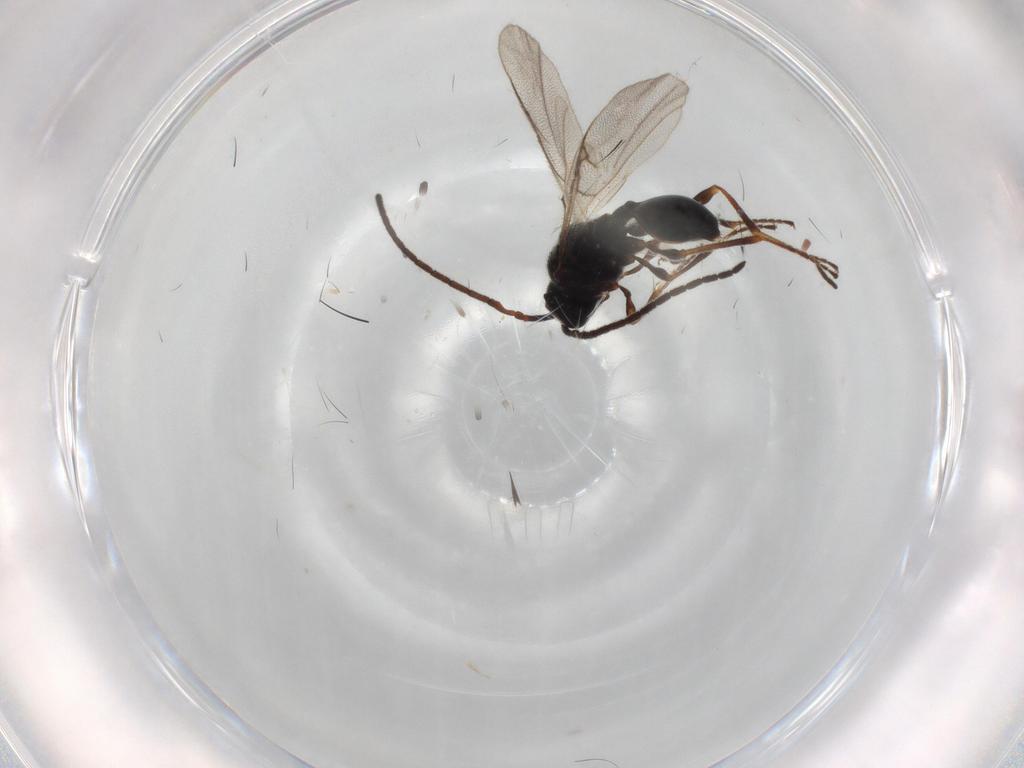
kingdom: Animalia
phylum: Arthropoda
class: Insecta
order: Hymenoptera
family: Diapriidae
